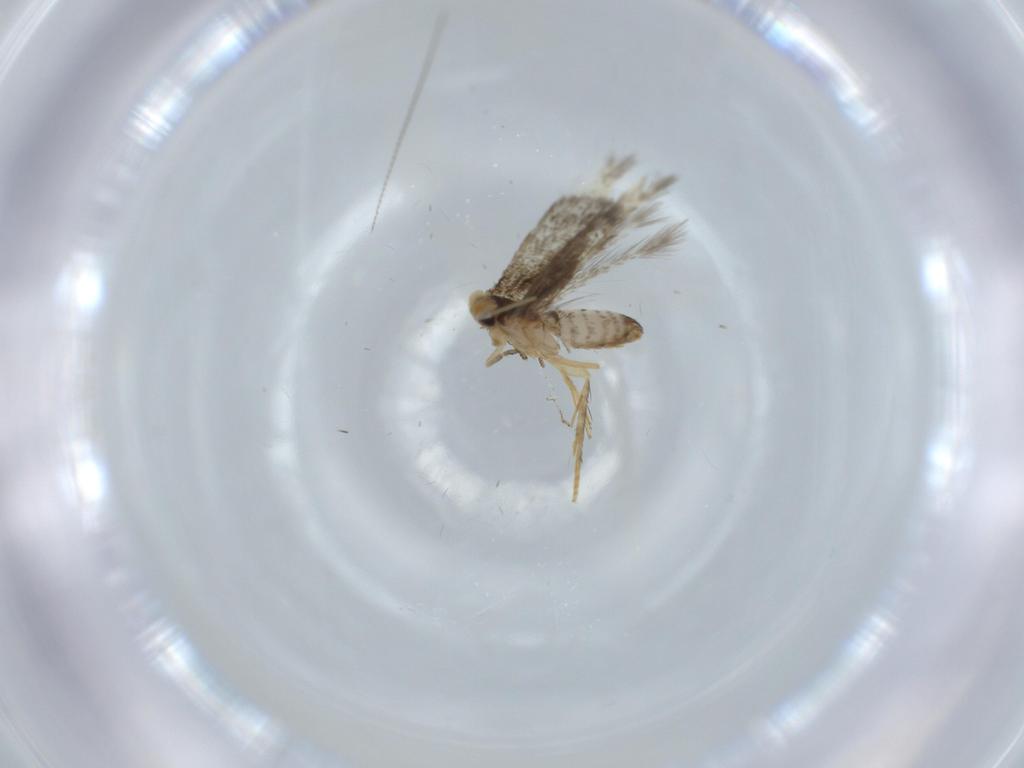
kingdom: Animalia
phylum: Arthropoda
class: Insecta
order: Lepidoptera
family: Nepticulidae
